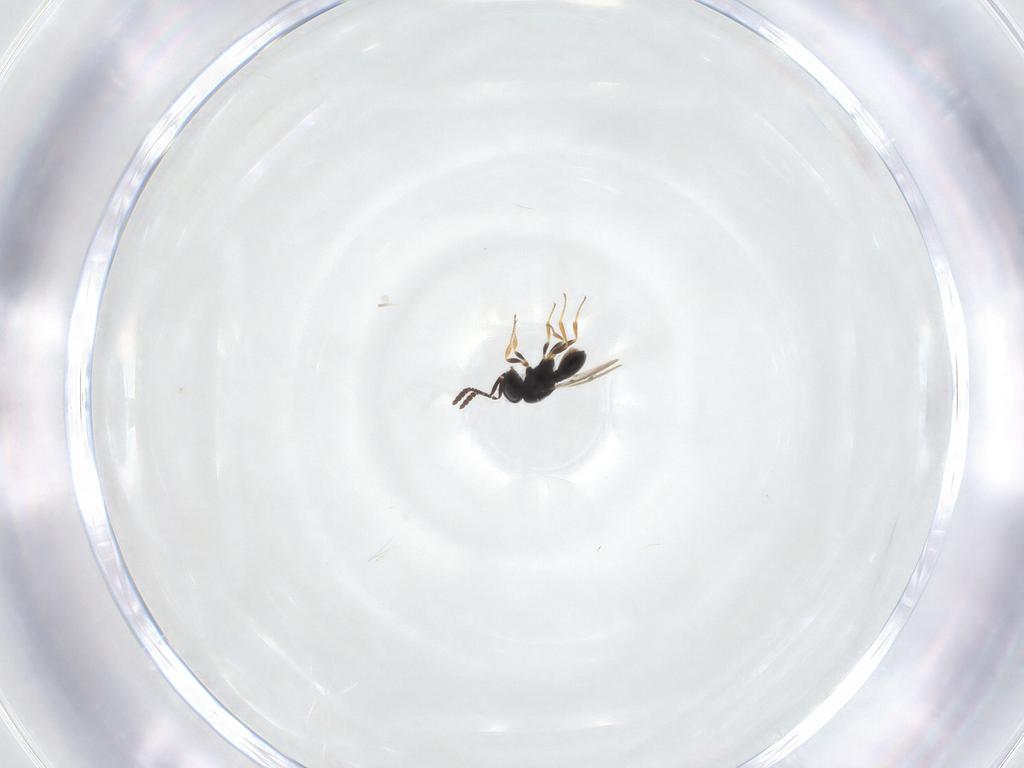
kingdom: Animalia
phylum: Arthropoda
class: Insecta
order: Hymenoptera
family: Scelionidae
